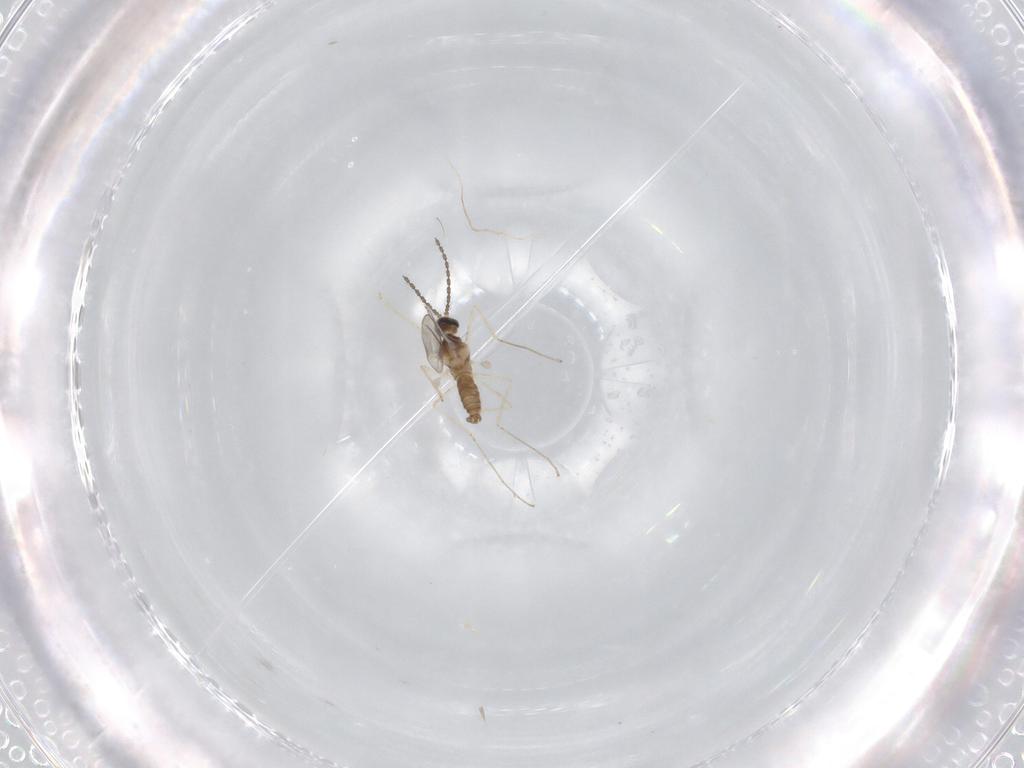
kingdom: Animalia
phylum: Arthropoda
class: Insecta
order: Diptera
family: Cecidomyiidae
